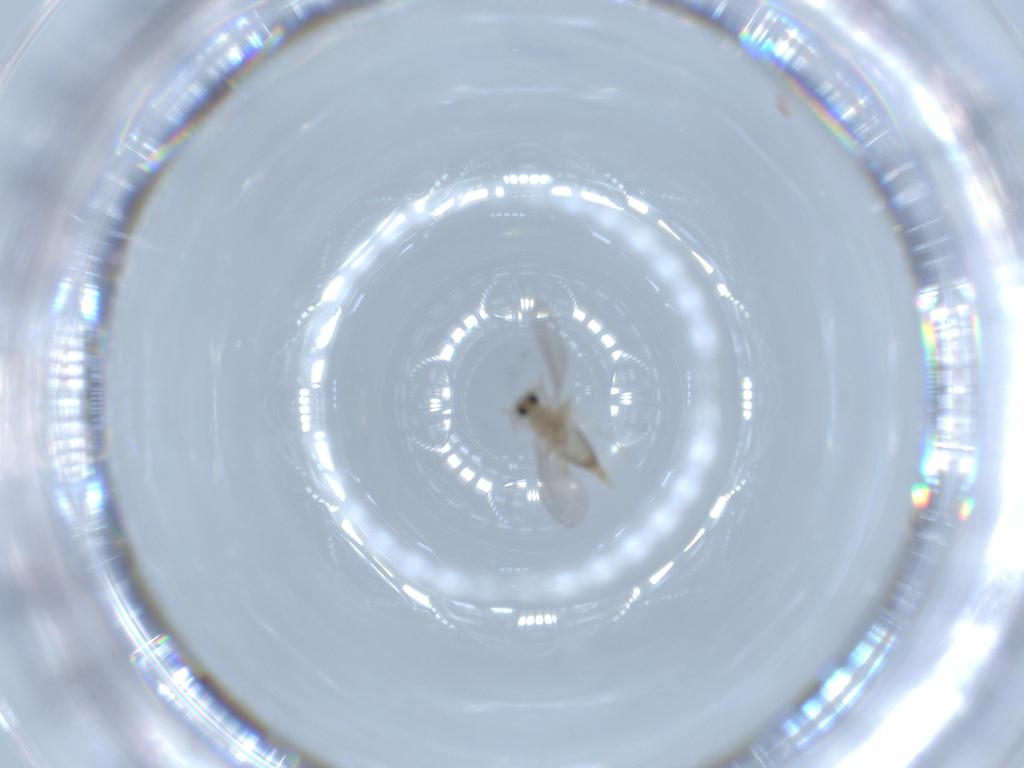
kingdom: Animalia
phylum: Arthropoda
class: Insecta
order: Diptera
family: Cecidomyiidae
